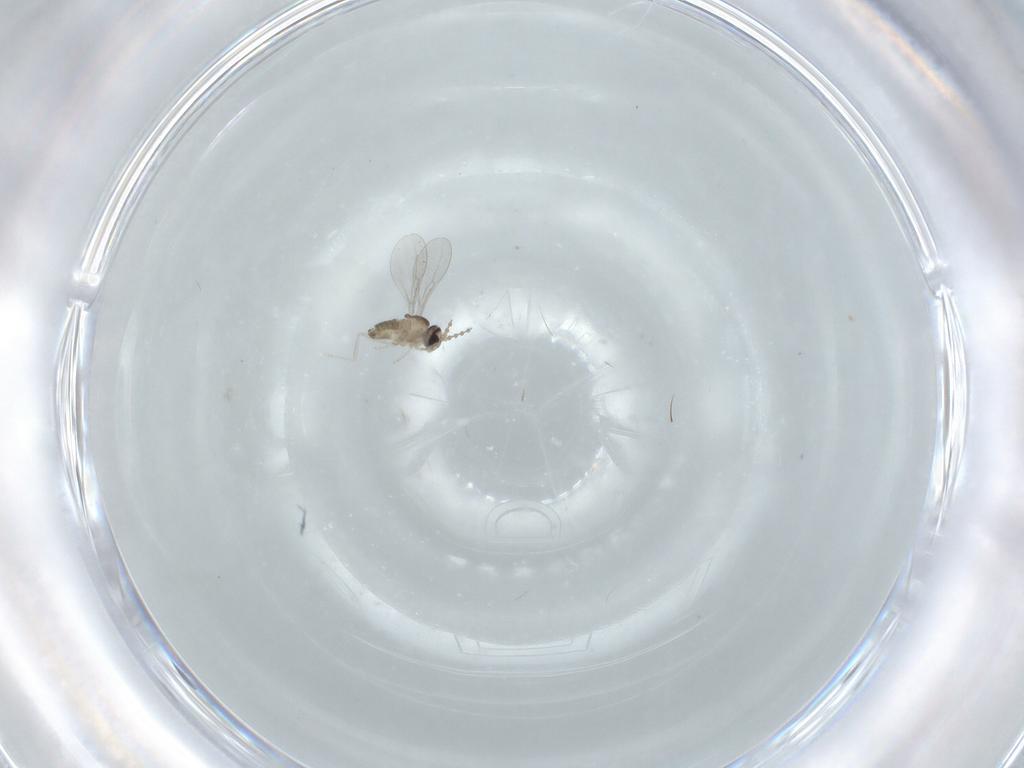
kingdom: Animalia
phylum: Arthropoda
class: Insecta
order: Diptera
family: Cecidomyiidae
